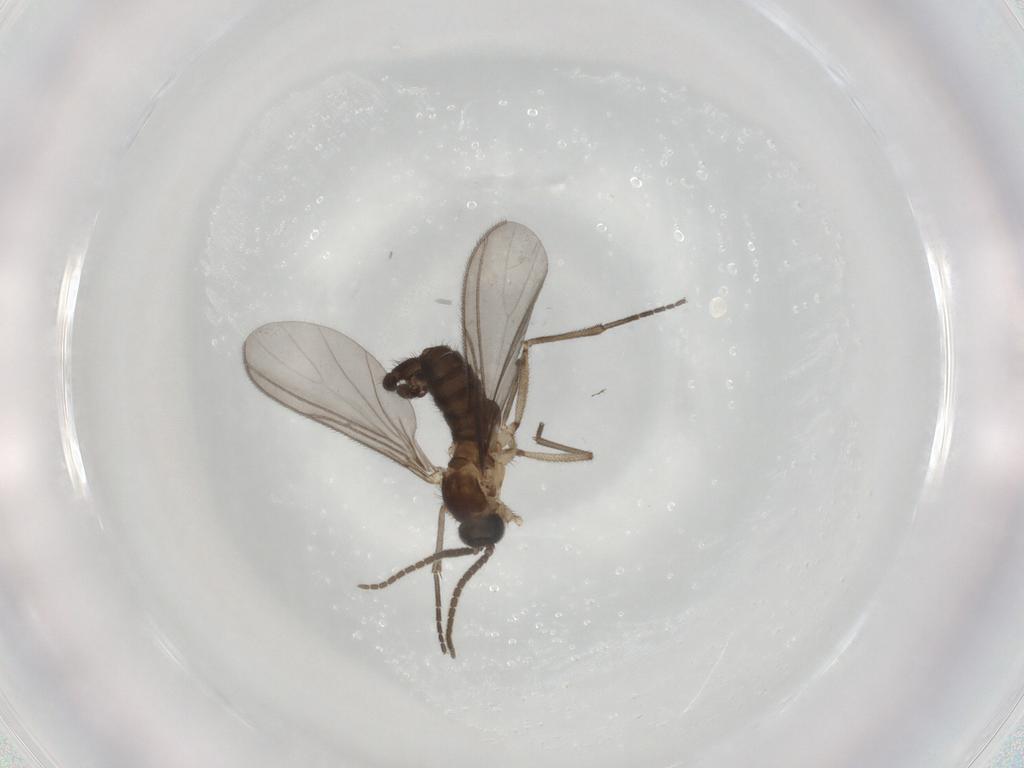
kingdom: Animalia
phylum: Arthropoda
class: Insecta
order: Diptera
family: Sciaridae
